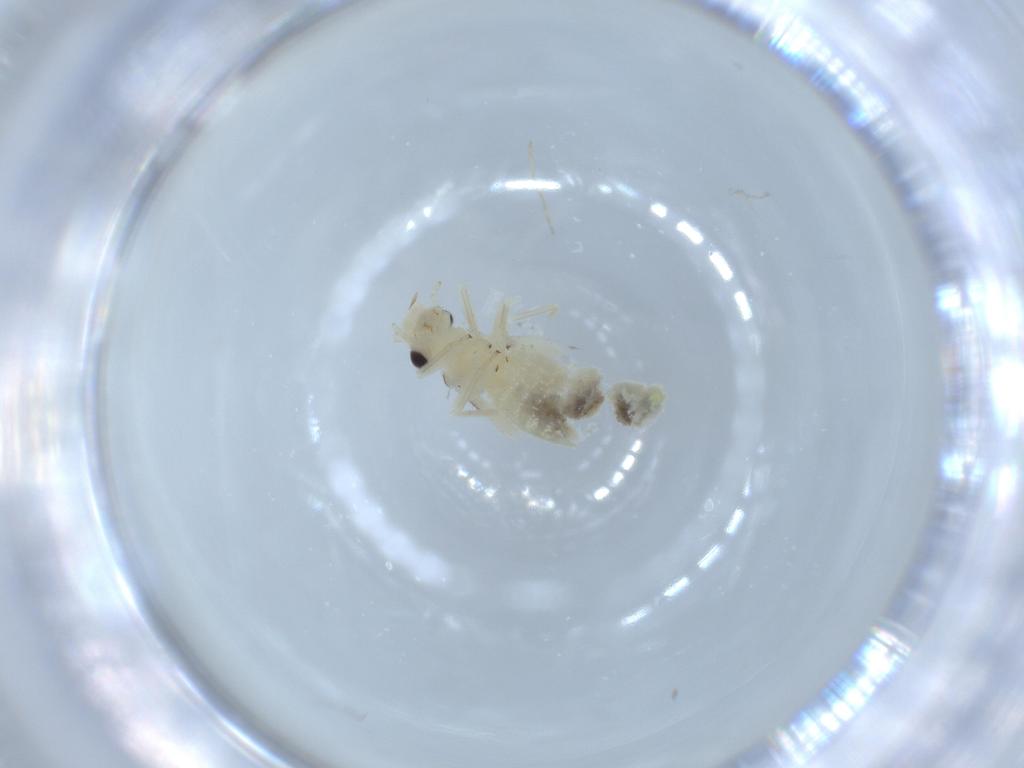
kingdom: Animalia
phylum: Arthropoda
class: Insecta
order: Psocodea
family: Caeciliusidae
